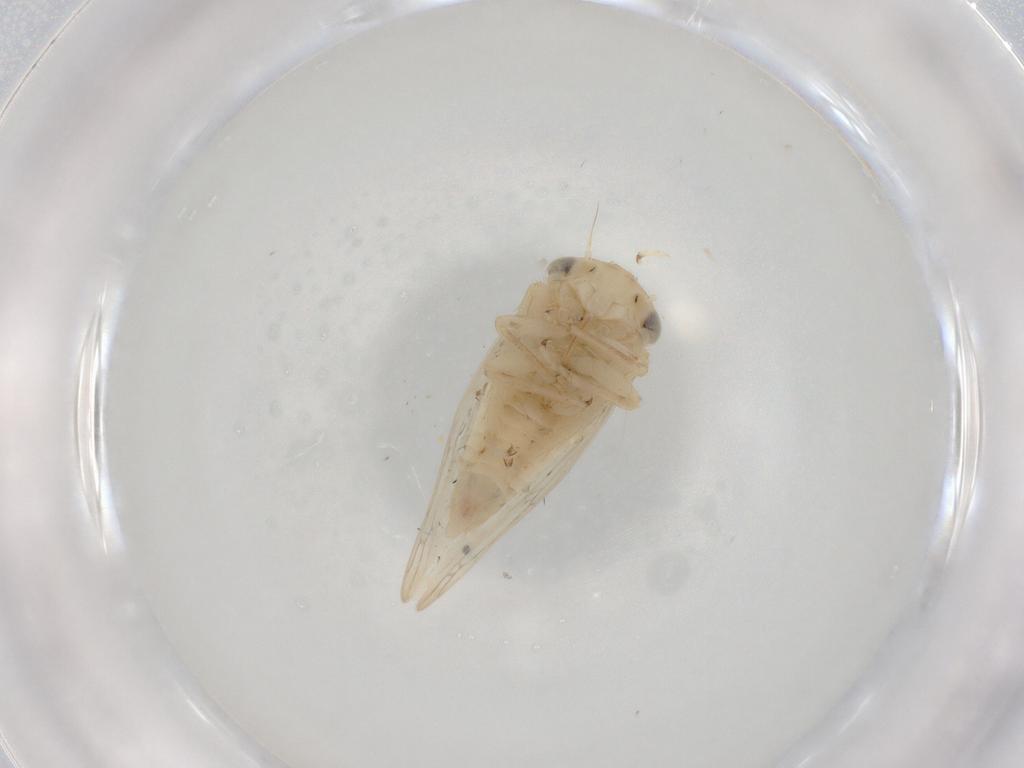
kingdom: Animalia
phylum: Arthropoda
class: Insecta
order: Hemiptera
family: Cicadellidae
